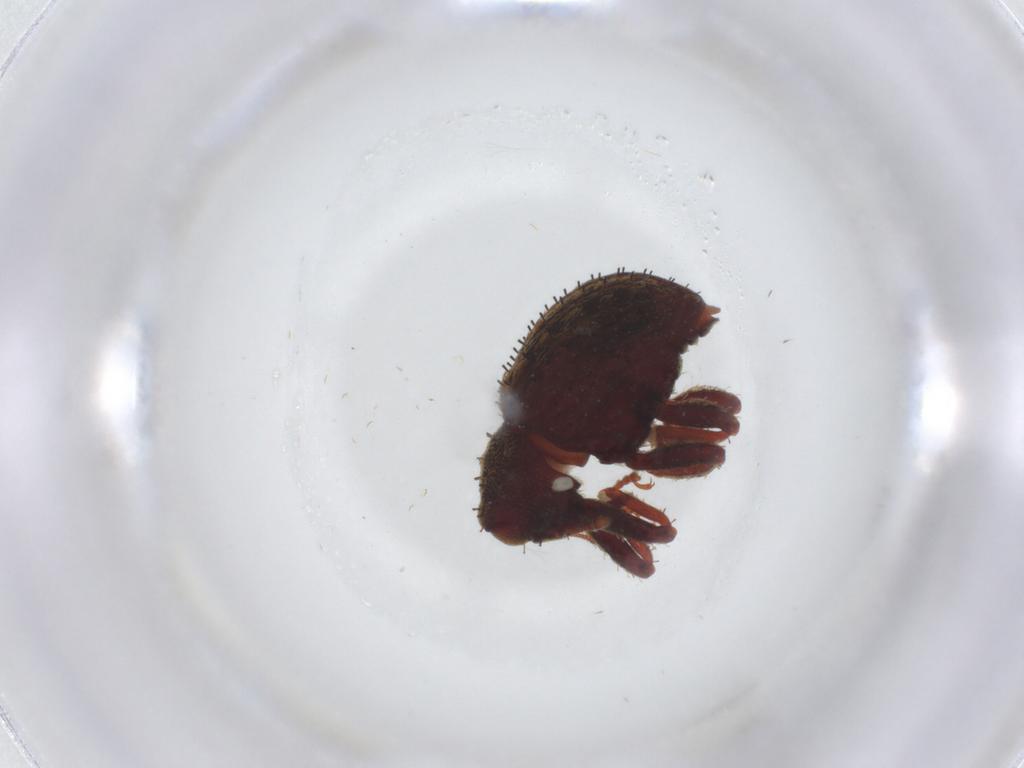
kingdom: Animalia
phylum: Arthropoda
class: Insecta
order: Coleoptera
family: Curculionidae
